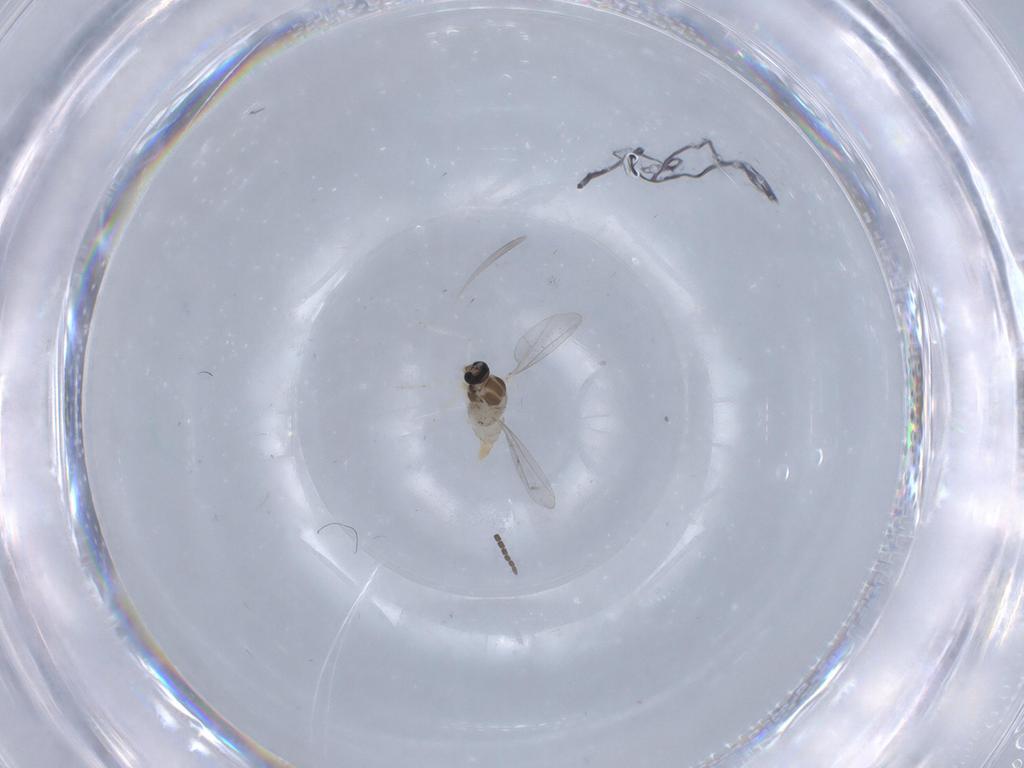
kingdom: Animalia
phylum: Arthropoda
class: Insecta
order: Diptera
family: Cecidomyiidae
